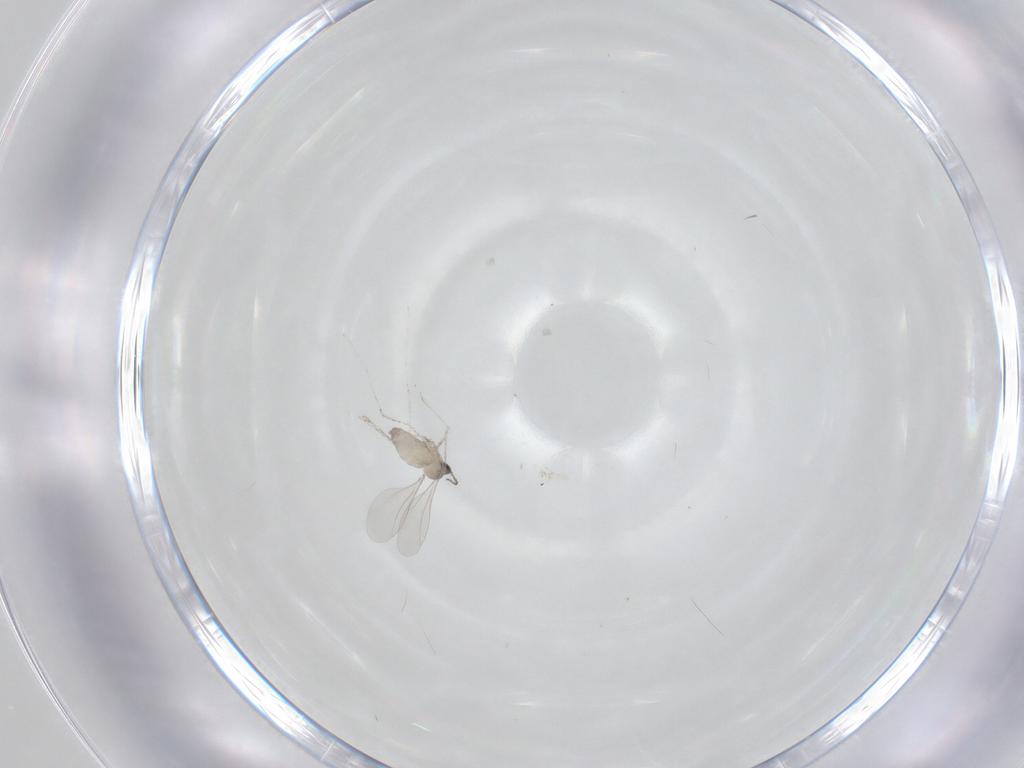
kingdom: Animalia
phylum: Arthropoda
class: Insecta
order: Diptera
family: Cecidomyiidae
